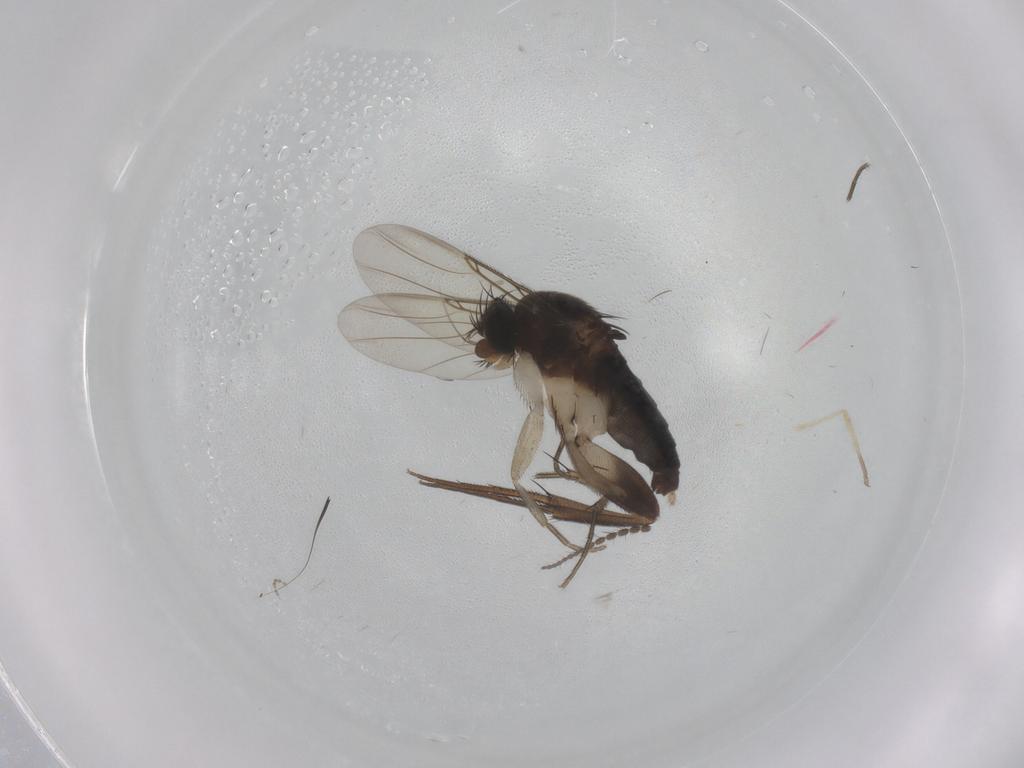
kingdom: Animalia
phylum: Arthropoda
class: Insecta
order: Diptera
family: Phoridae
